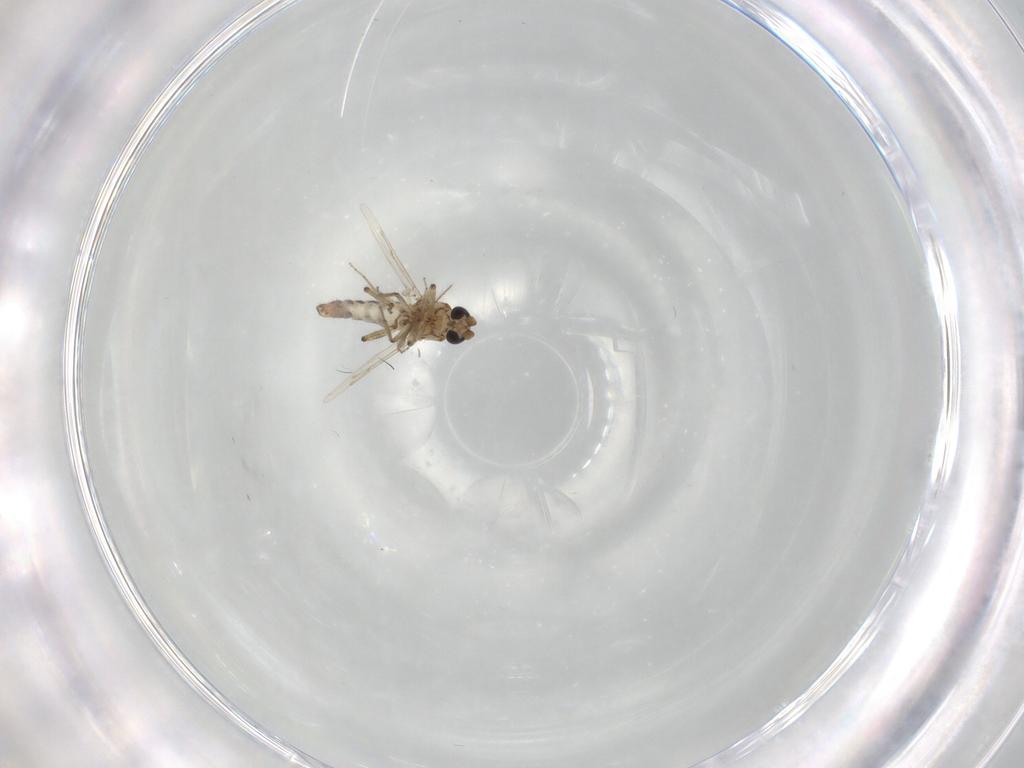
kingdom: Animalia
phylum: Arthropoda
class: Insecta
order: Diptera
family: Ceratopogonidae
